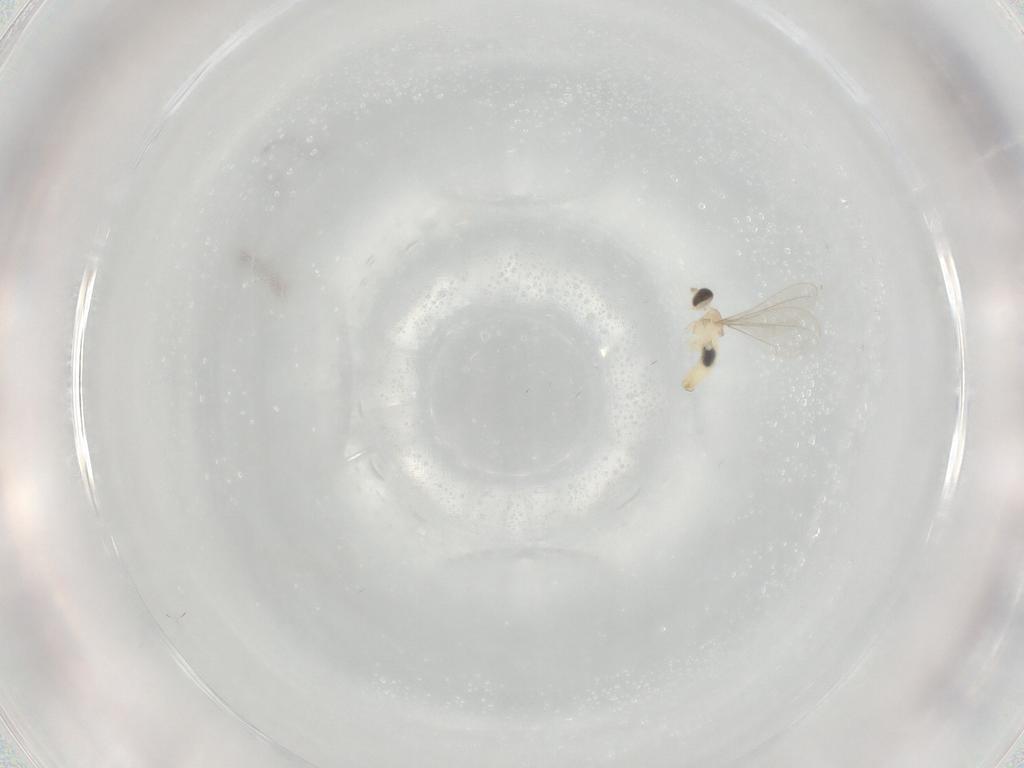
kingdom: Animalia
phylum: Arthropoda
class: Insecta
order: Diptera
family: Cecidomyiidae
